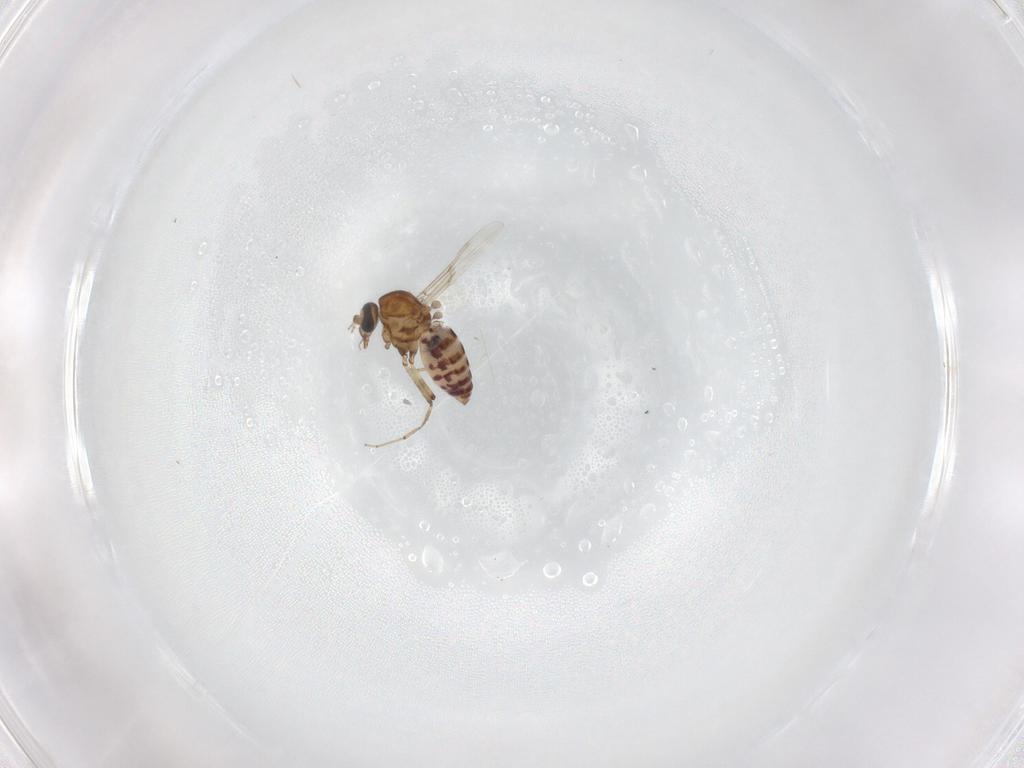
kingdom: Animalia
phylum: Arthropoda
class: Insecta
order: Diptera
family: Ceratopogonidae
